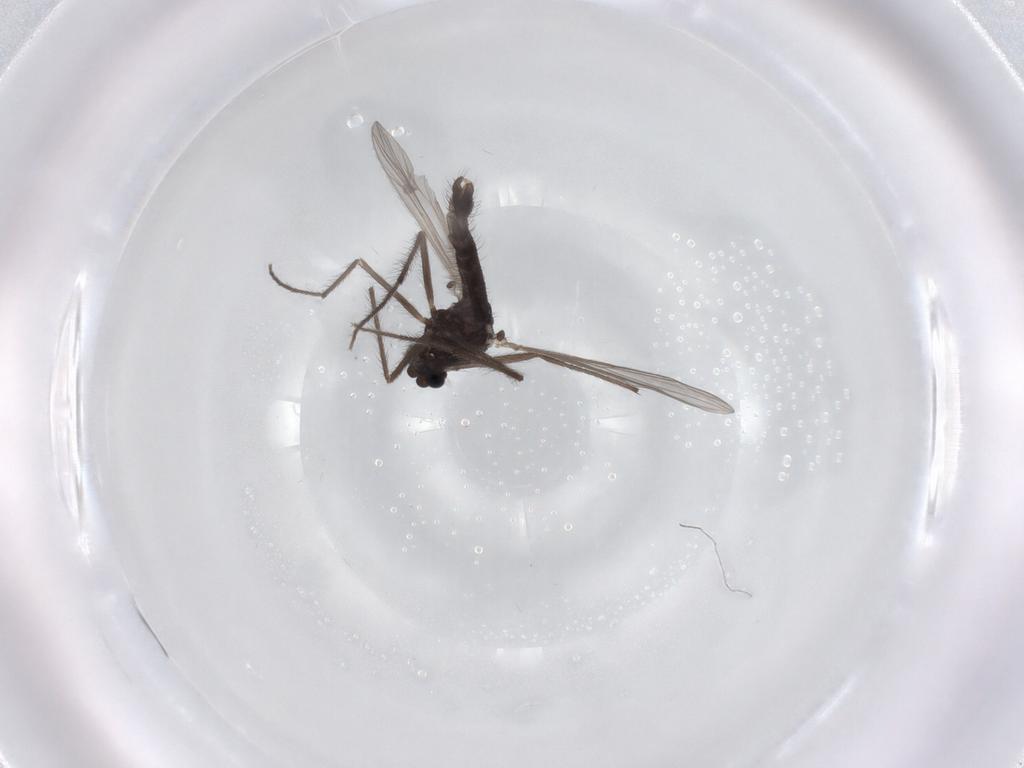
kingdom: Animalia
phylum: Arthropoda
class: Insecta
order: Diptera
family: Chironomidae
